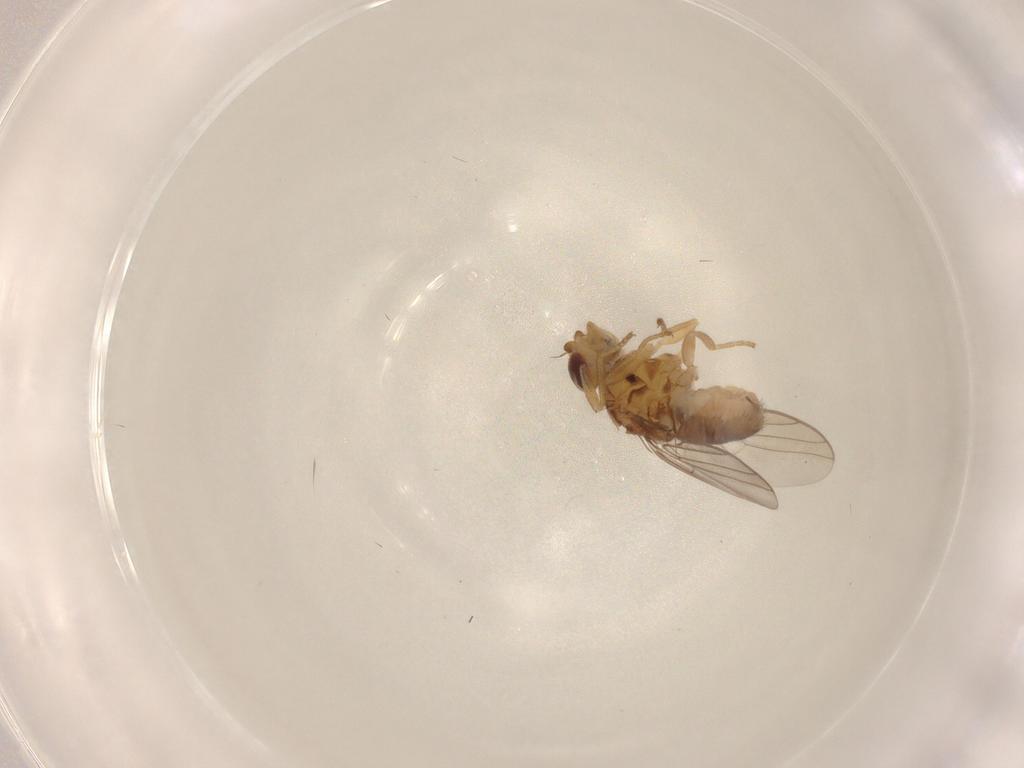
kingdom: Animalia
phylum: Arthropoda
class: Insecta
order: Diptera
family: Chloropidae
